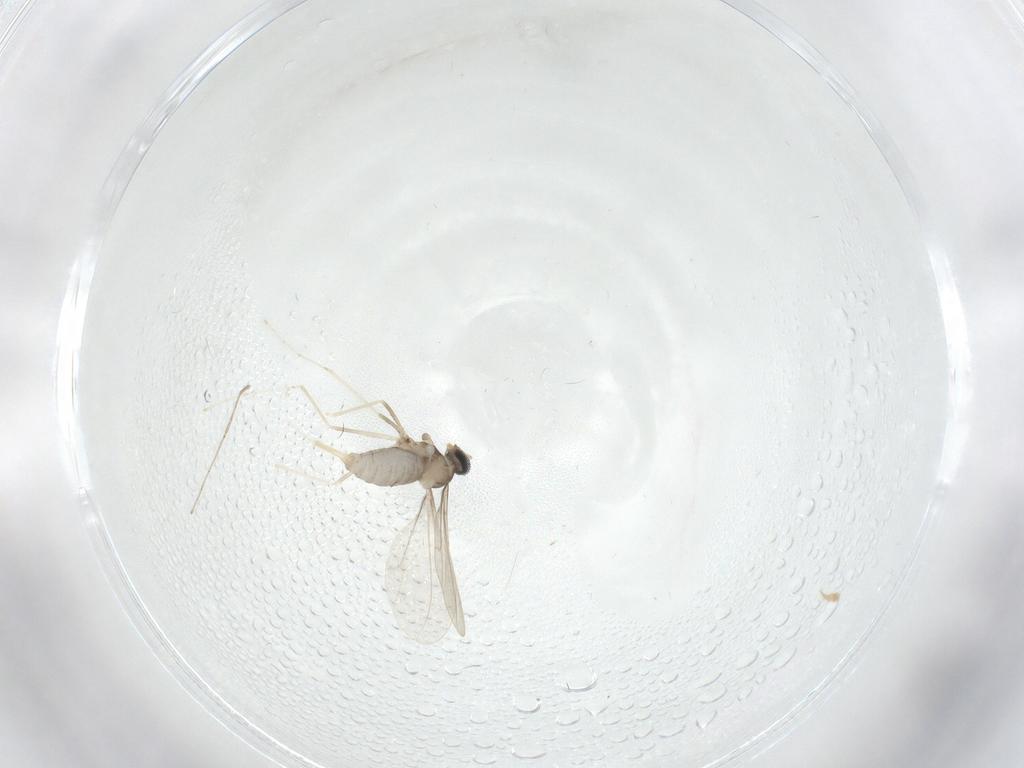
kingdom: Animalia
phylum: Arthropoda
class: Insecta
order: Diptera
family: Cecidomyiidae
